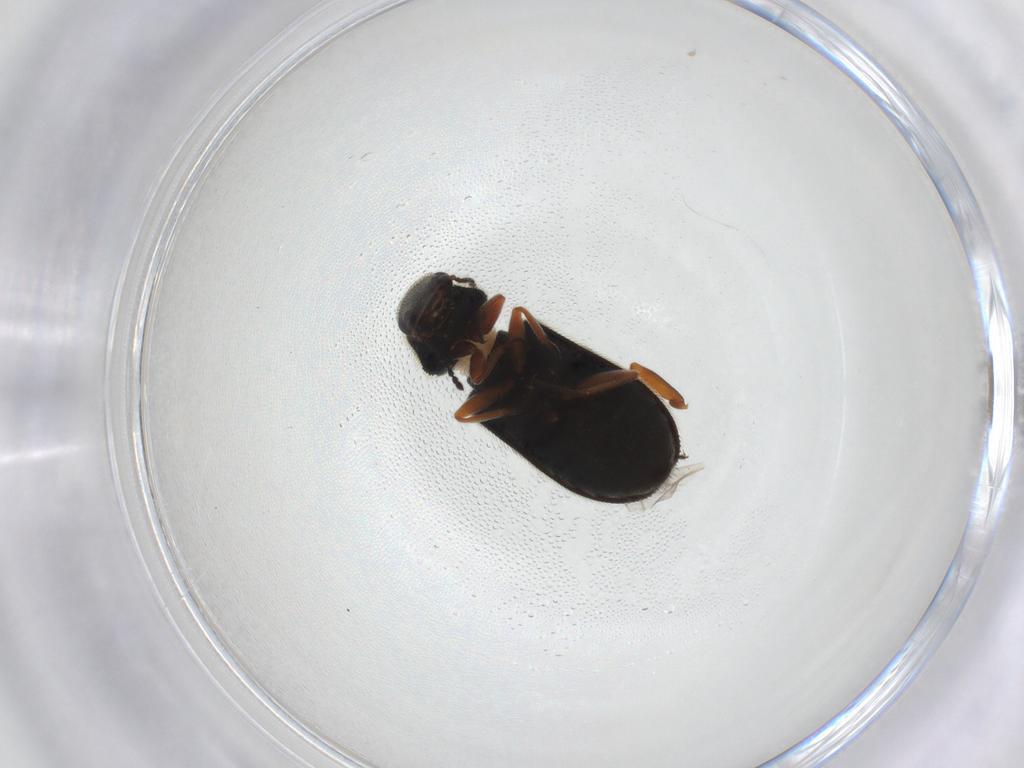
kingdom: Animalia
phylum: Arthropoda
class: Insecta
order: Coleoptera
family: Melyridae
